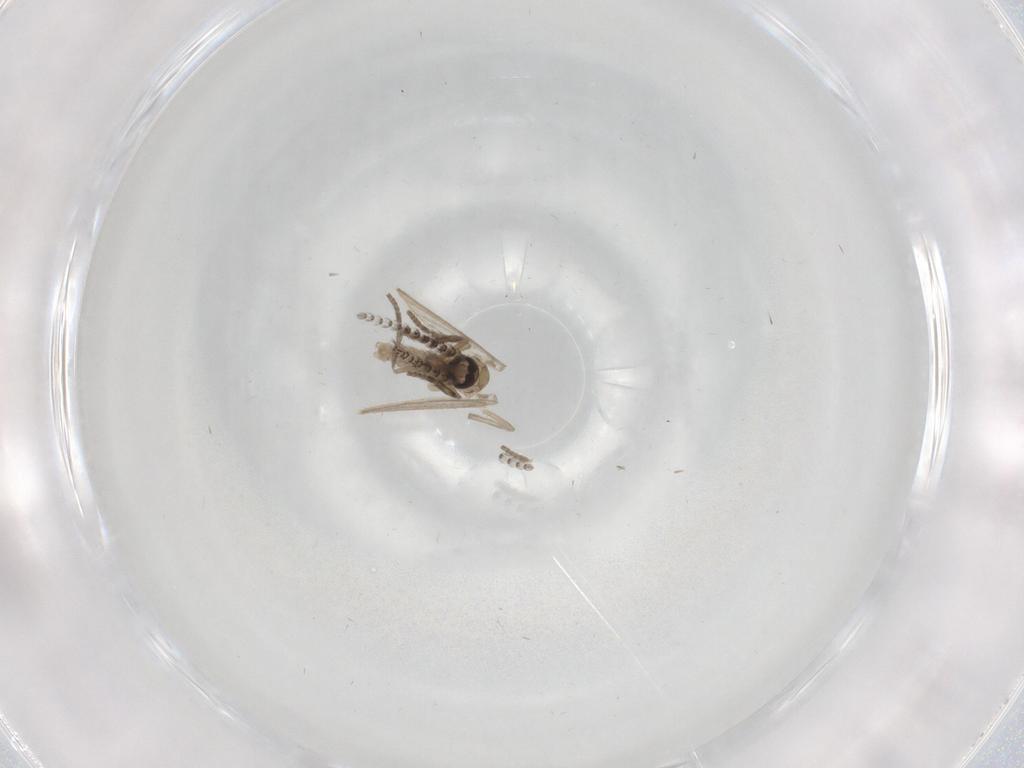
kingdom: Animalia
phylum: Arthropoda
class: Insecta
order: Diptera
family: Psychodidae
